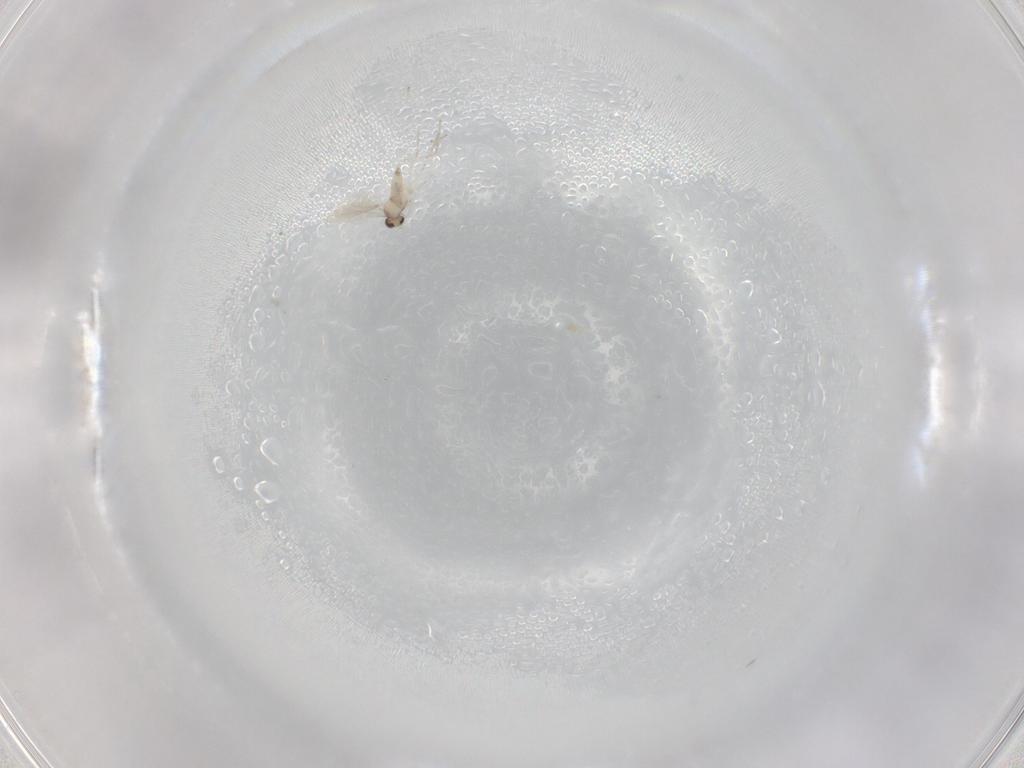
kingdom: Animalia
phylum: Arthropoda
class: Insecta
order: Diptera
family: Cecidomyiidae
